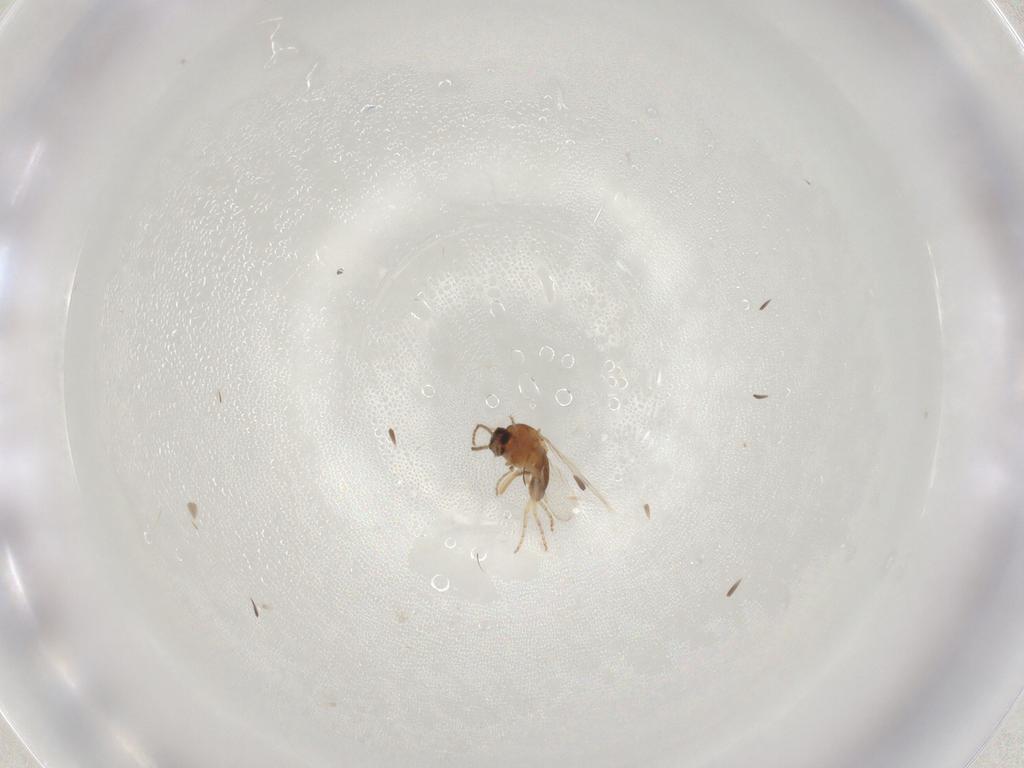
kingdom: Animalia
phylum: Arthropoda
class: Insecta
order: Diptera
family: Ceratopogonidae
